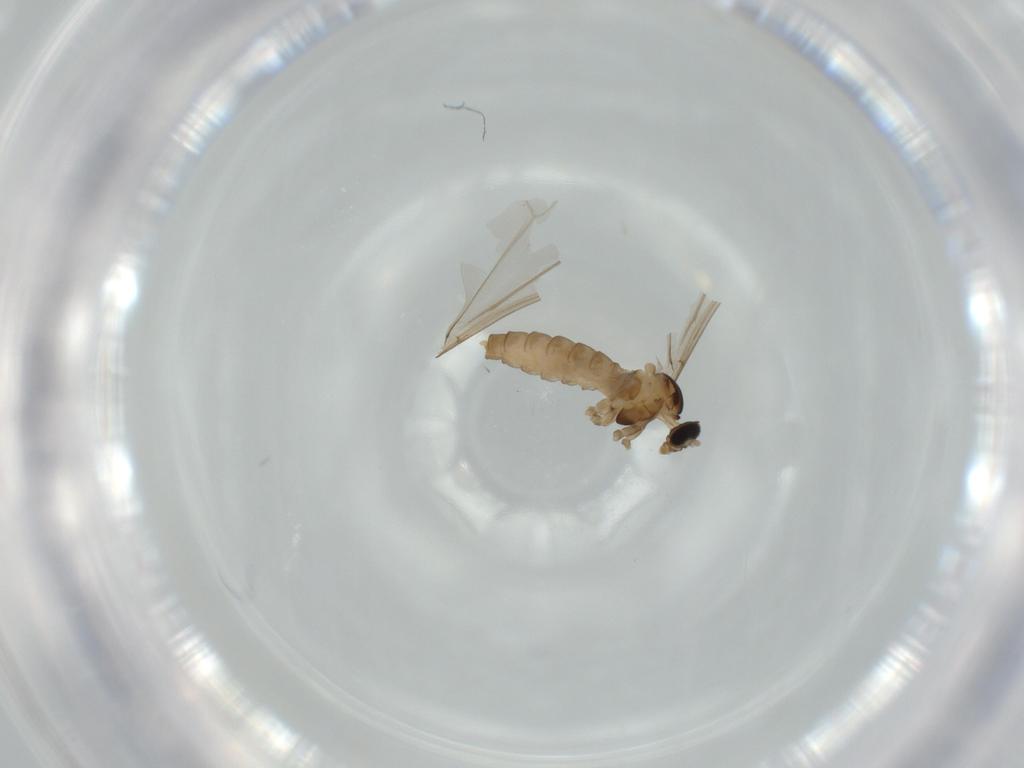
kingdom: Animalia
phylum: Arthropoda
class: Insecta
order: Diptera
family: Cecidomyiidae
